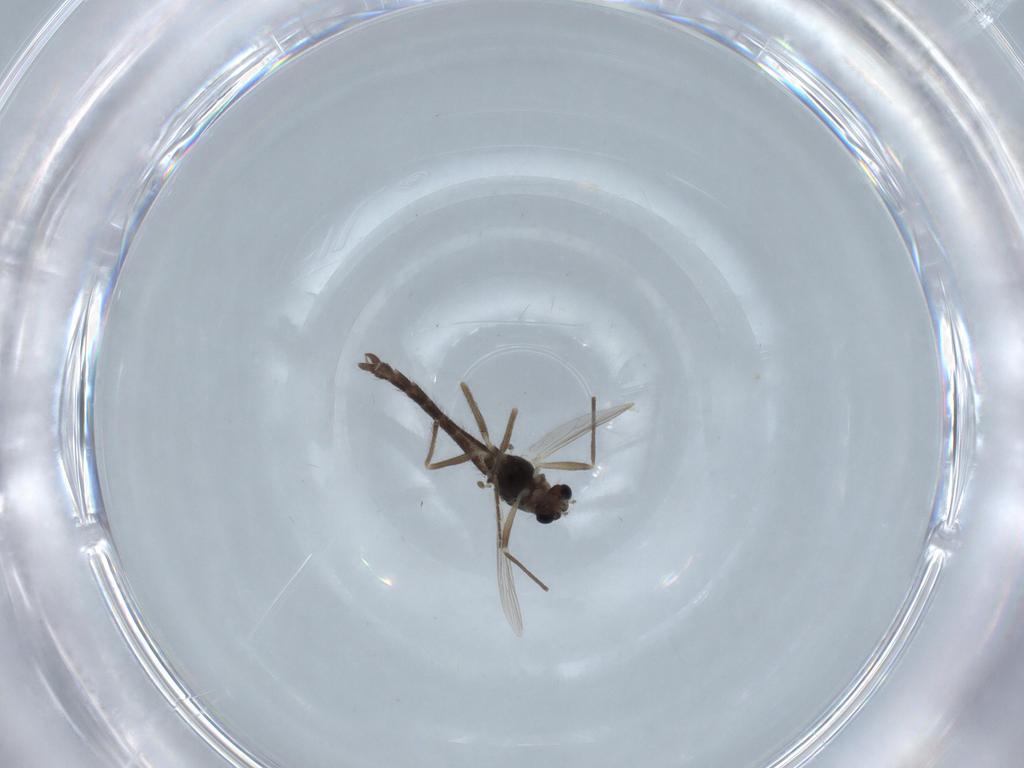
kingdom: Animalia
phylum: Arthropoda
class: Insecta
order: Diptera
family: Chironomidae
